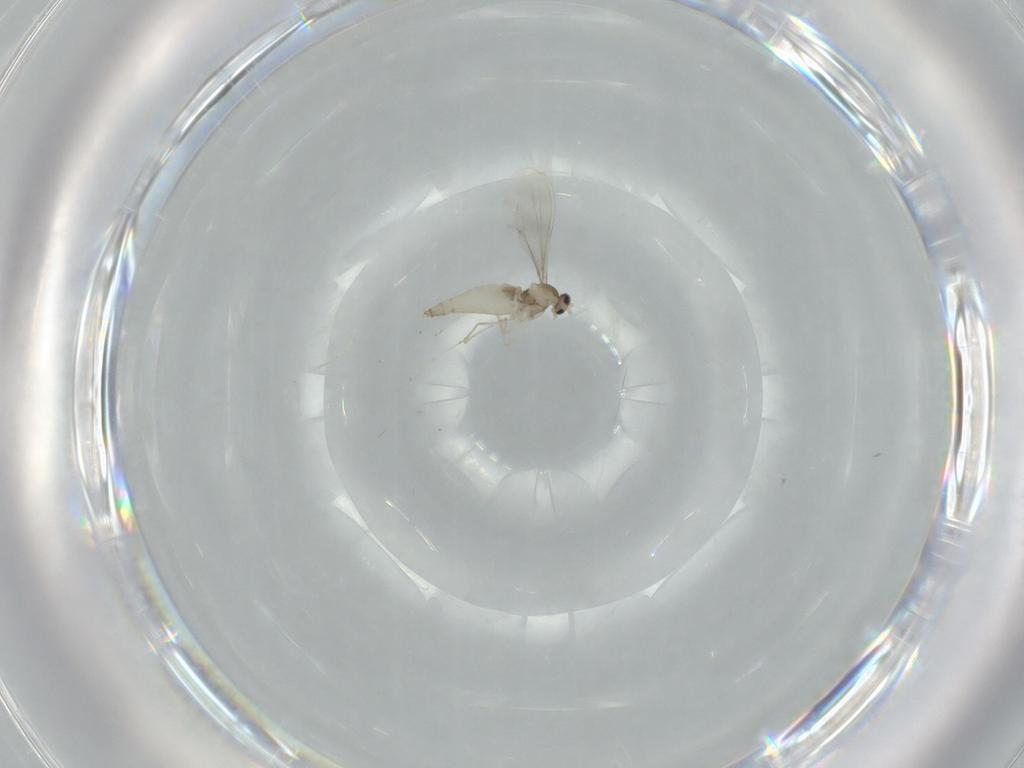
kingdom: Animalia
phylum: Arthropoda
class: Insecta
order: Diptera
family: Cecidomyiidae
